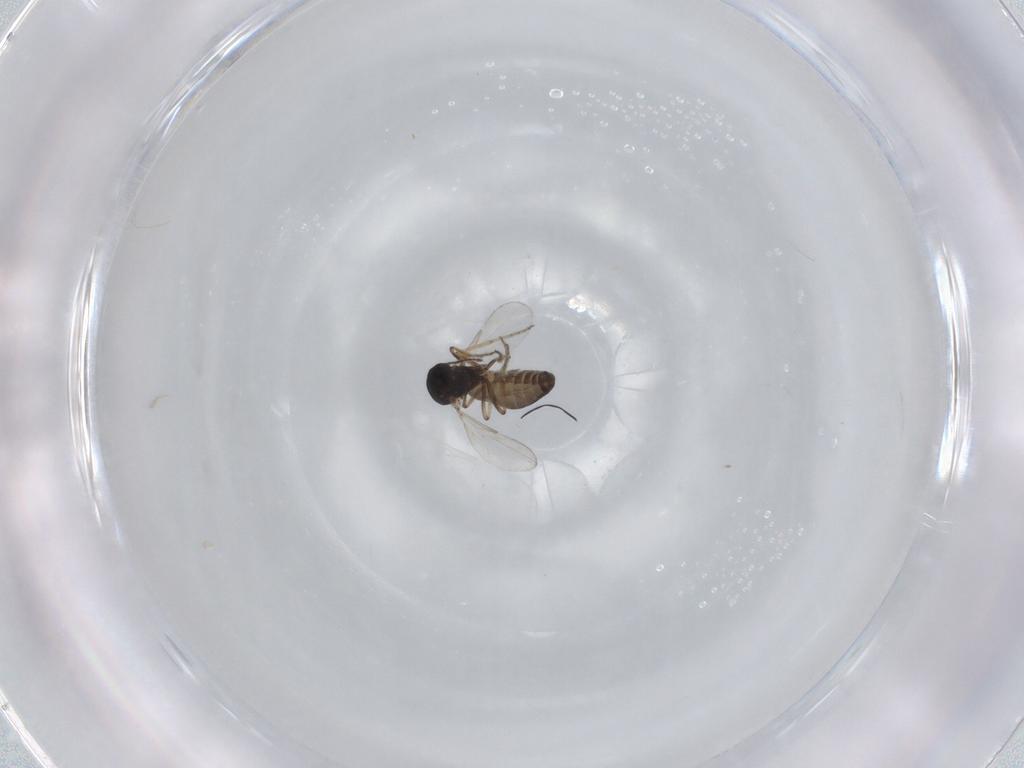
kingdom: Animalia
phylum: Arthropoda
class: Insecta
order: Diptera
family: Ceratopogonidae
